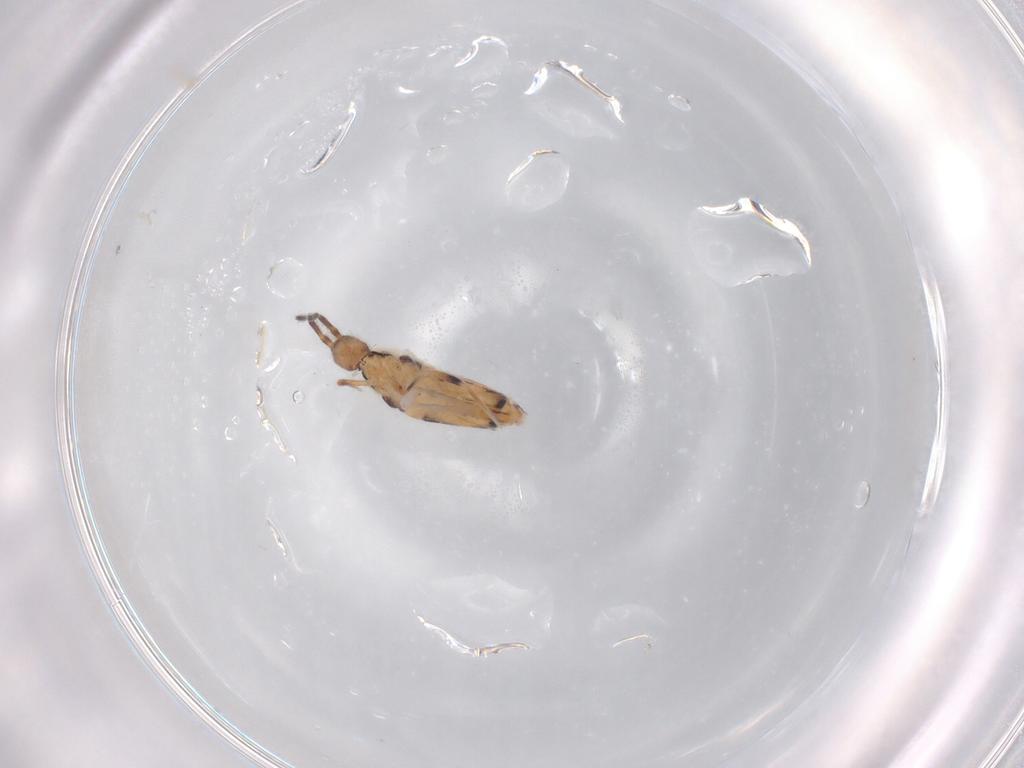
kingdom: Animalia
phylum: Arthropoda
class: Collembola
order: Entomobryomorpha
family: Entomobryidae
